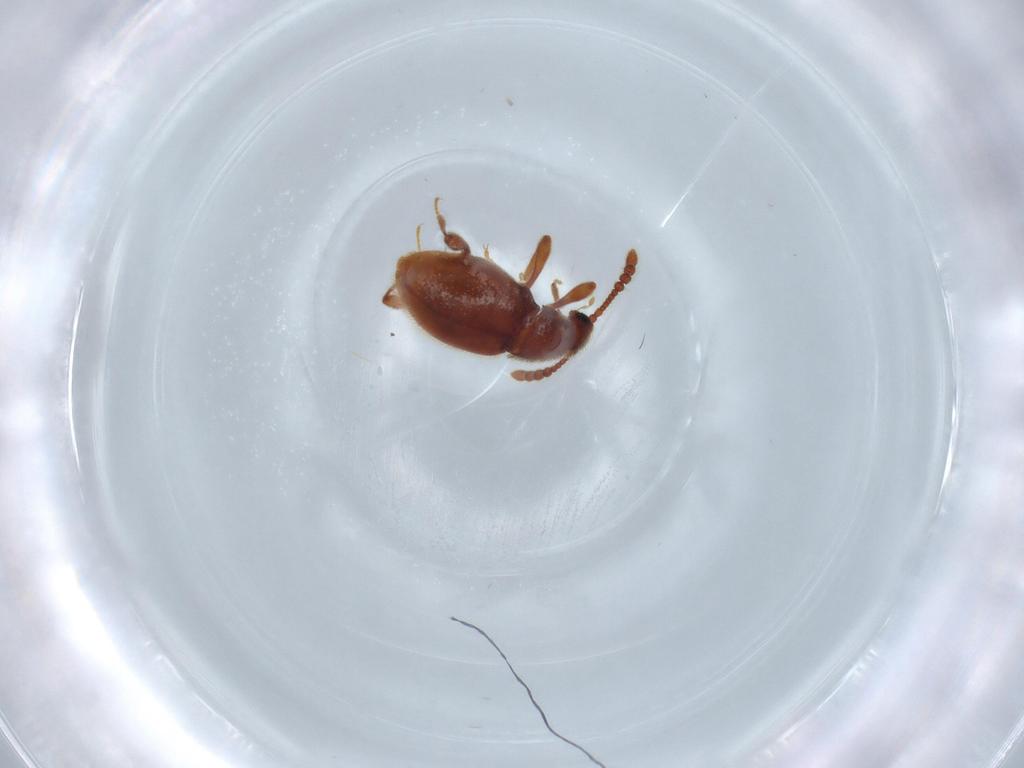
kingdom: Animalia
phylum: Arthropoda
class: Insecta
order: Coleoptera
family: Staphylinidae
